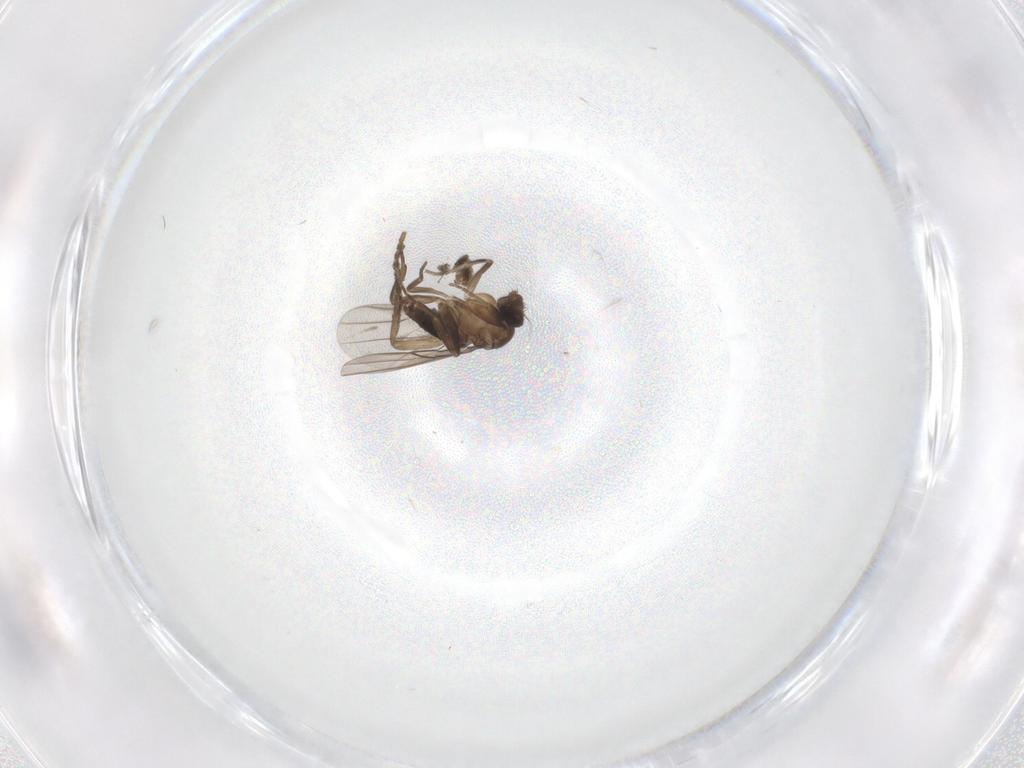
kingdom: Animalia
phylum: Arthropoda
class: Insecta
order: Diptera
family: Psychodidae
